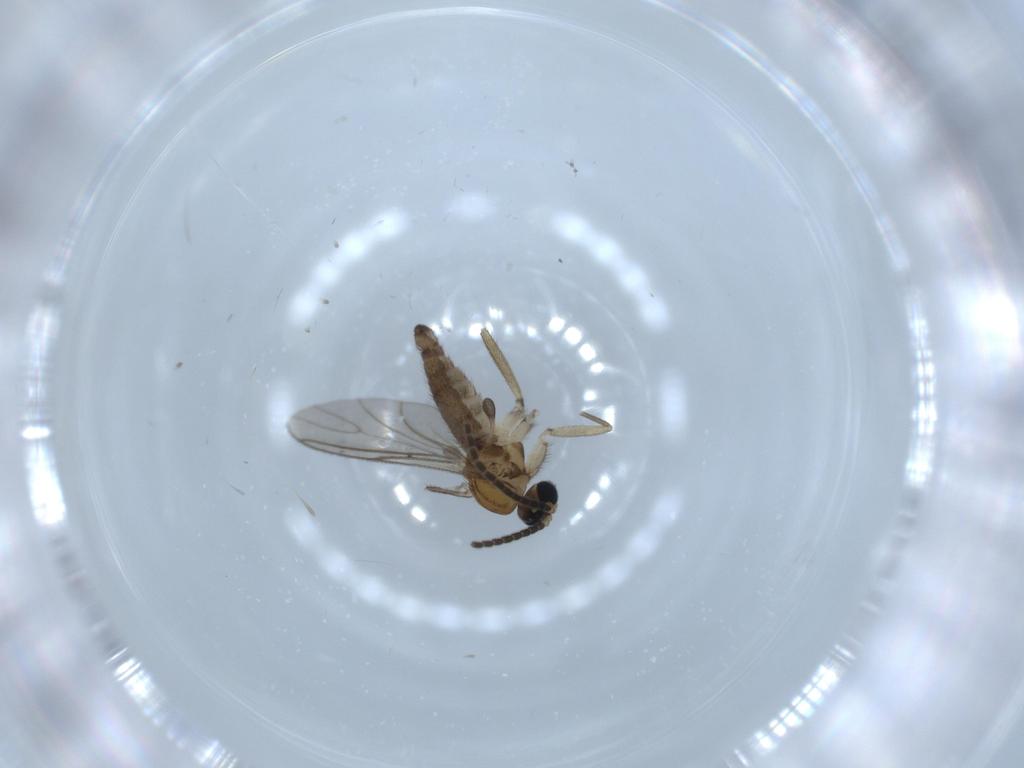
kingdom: Animalia
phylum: Arthropoda
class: Insecta
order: Diptera
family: Sciaridae
